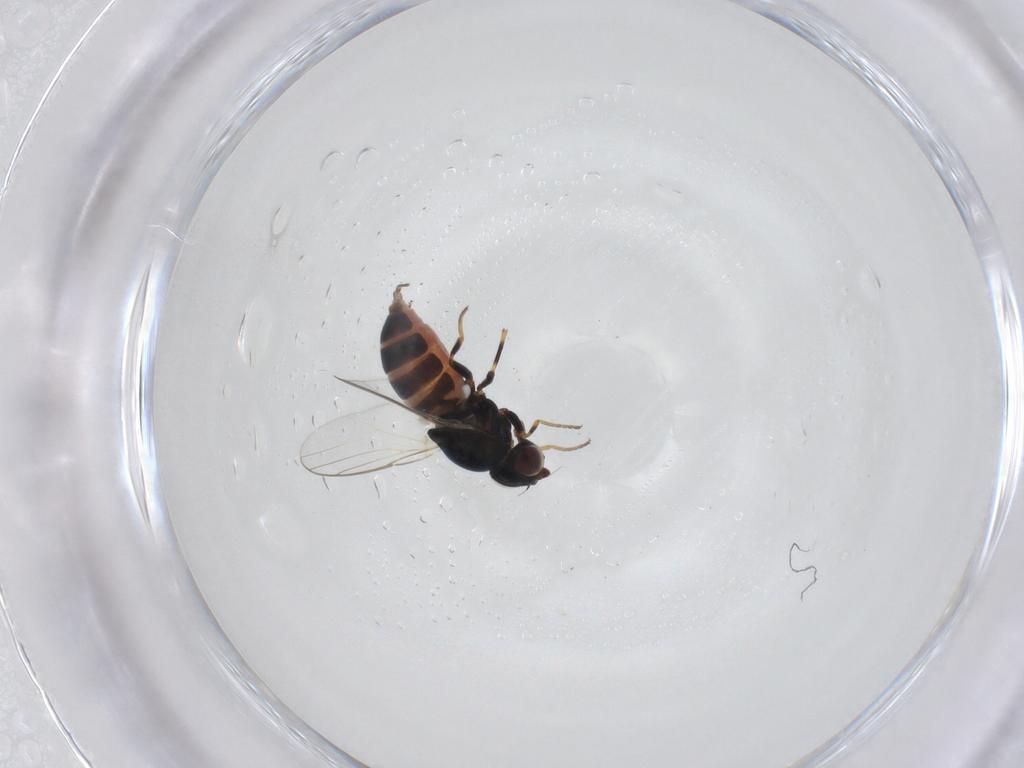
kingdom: Animalia
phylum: Arthropoda
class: Insecta
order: Diptera
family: Chloropidae
